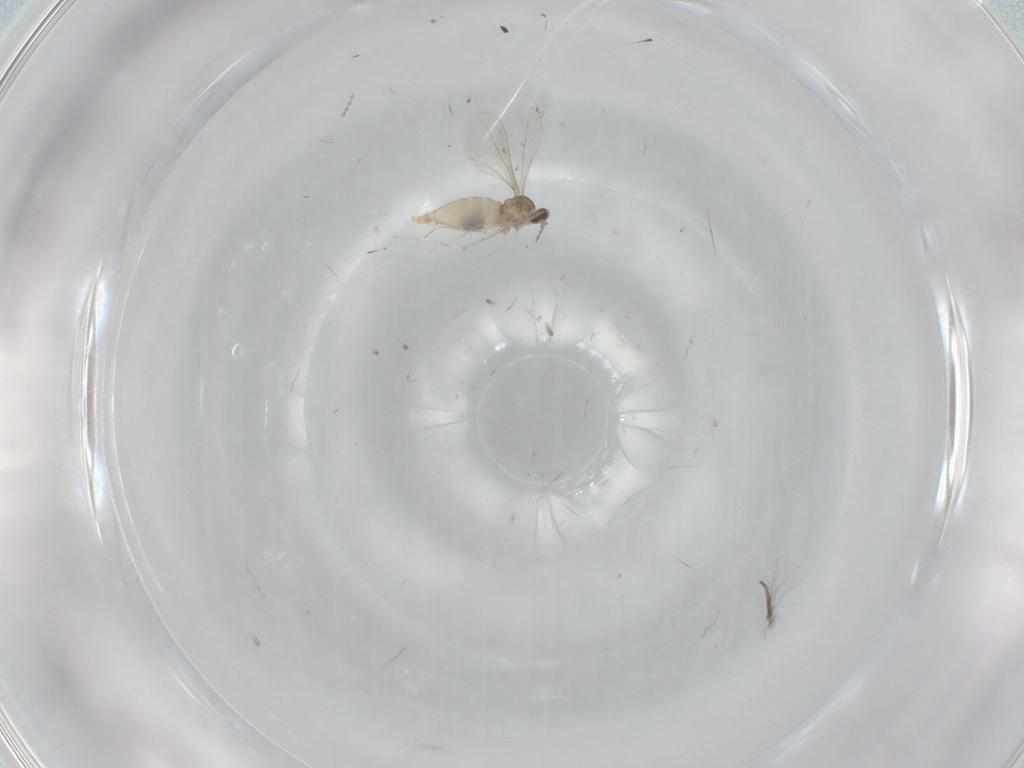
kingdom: Animalia
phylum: Arthropoda
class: Insecta
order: Diptera
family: Cecidomyiidae
